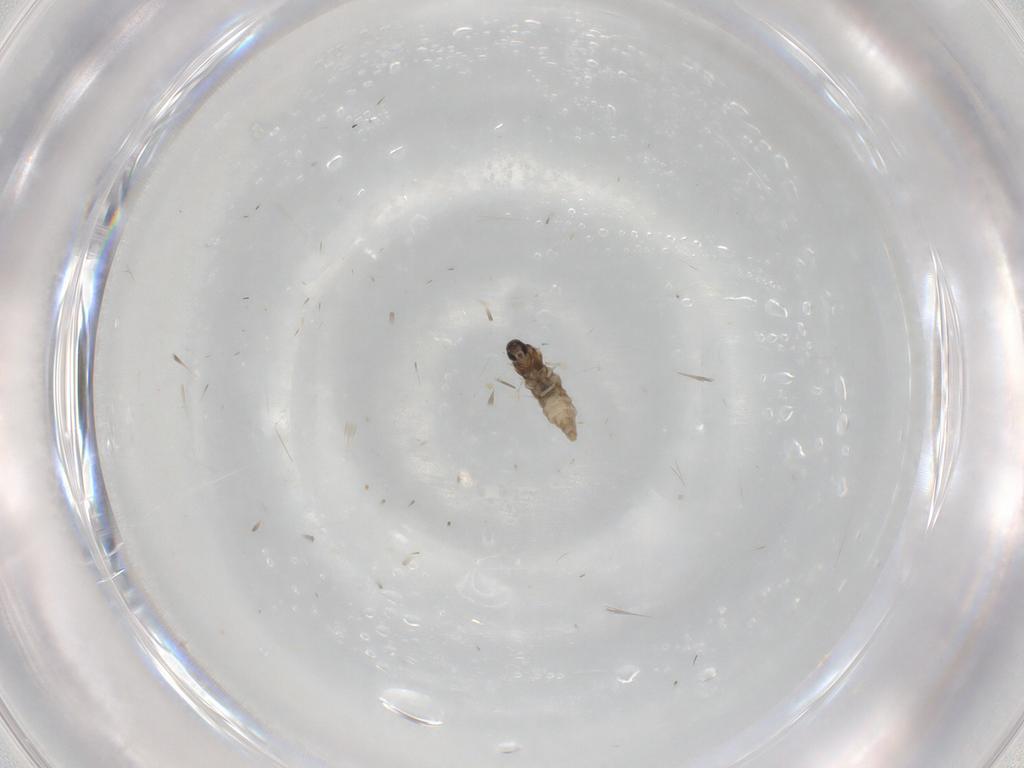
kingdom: Animalia
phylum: Arthropoda
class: Insecta
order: Diptera
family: Cecidomyiidae
